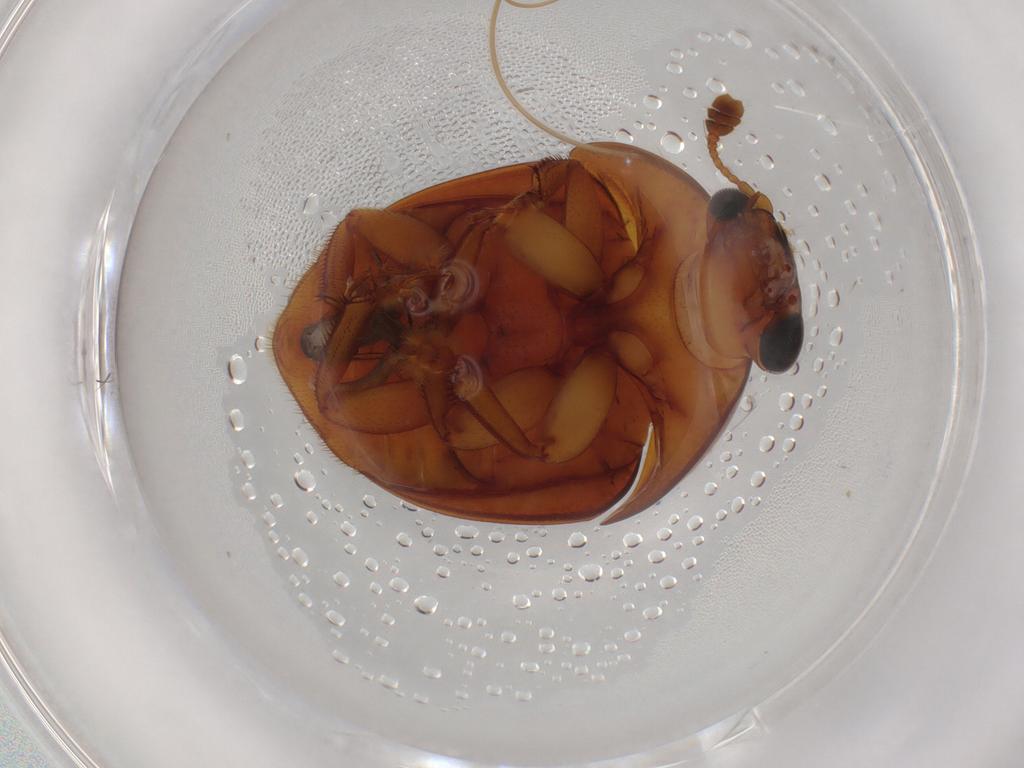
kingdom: Animalia
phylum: Arthropoda
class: Insecta
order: Coleoptera
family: Nitidulidae
